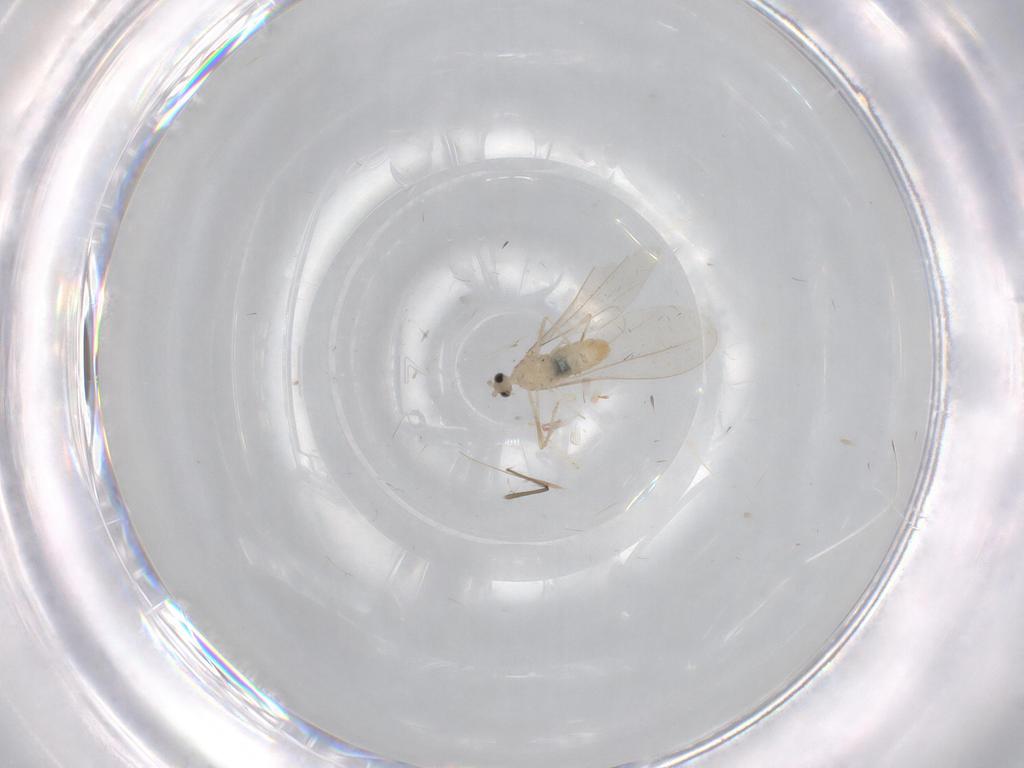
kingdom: Animalia
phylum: Arthropoda
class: Insecta
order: Diptera
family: Cecidomyiidae
